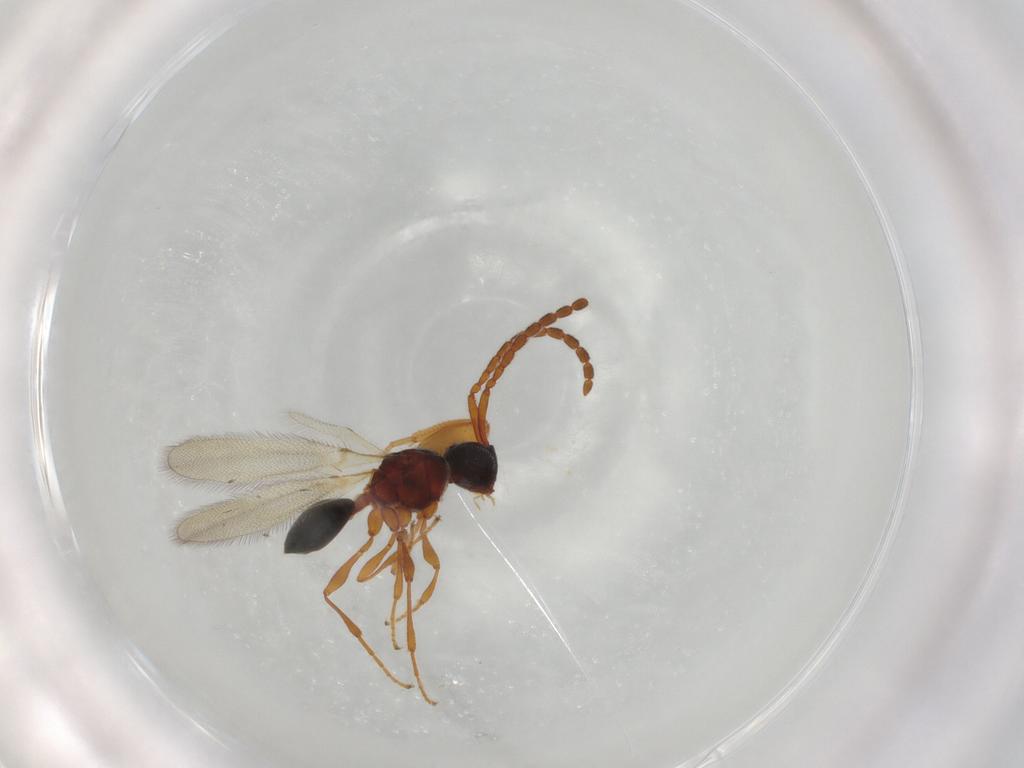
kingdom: Animalia
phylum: Arthropoda
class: Insecta
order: Hymenoptera
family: Diapriidae
